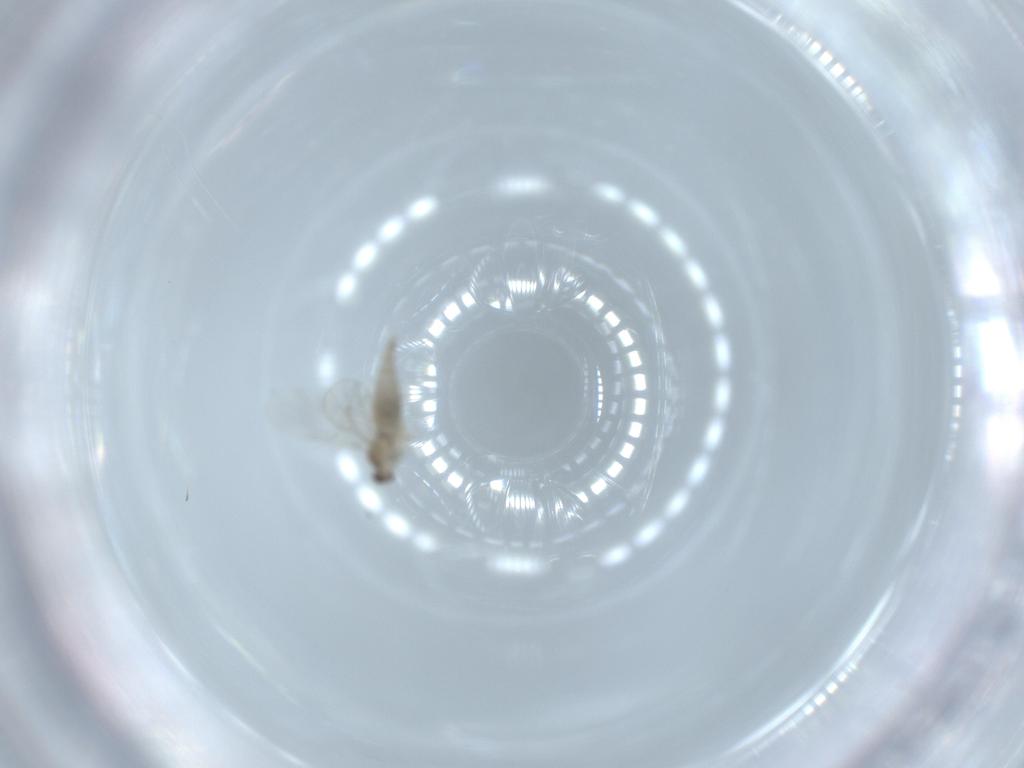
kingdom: Animalia
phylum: Arthropoda
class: Insecta
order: Diptera
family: Cecidomyiidae
